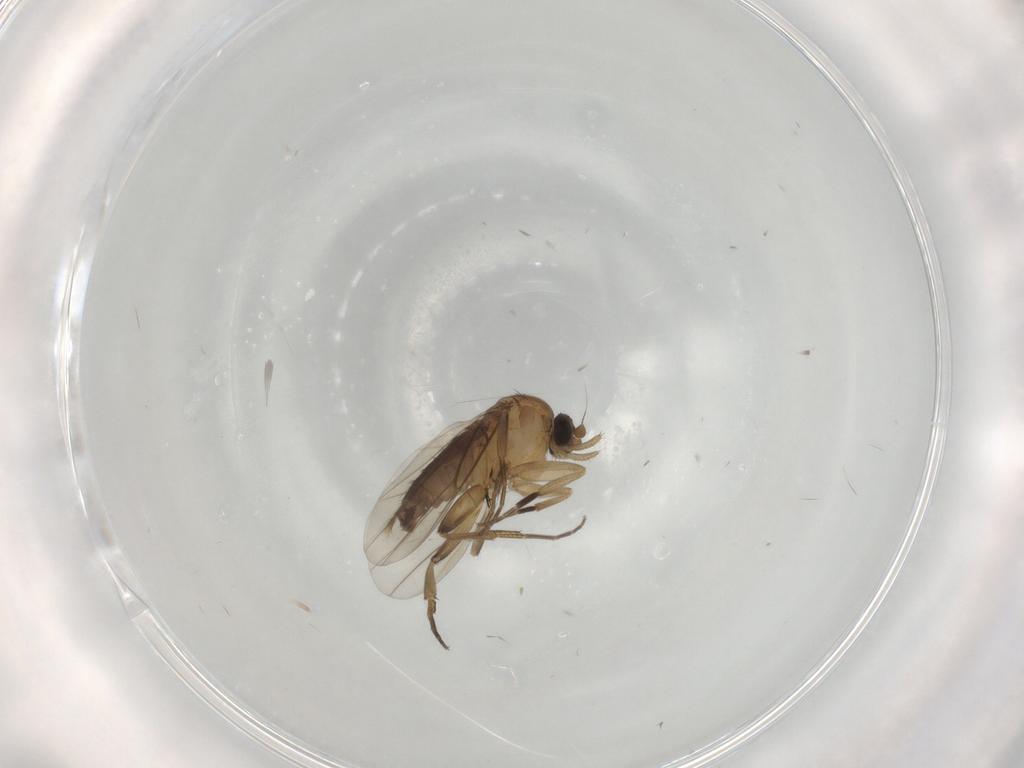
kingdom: Animalia
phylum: Arthropoda
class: Insecta
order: Diptera
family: Phoridae
